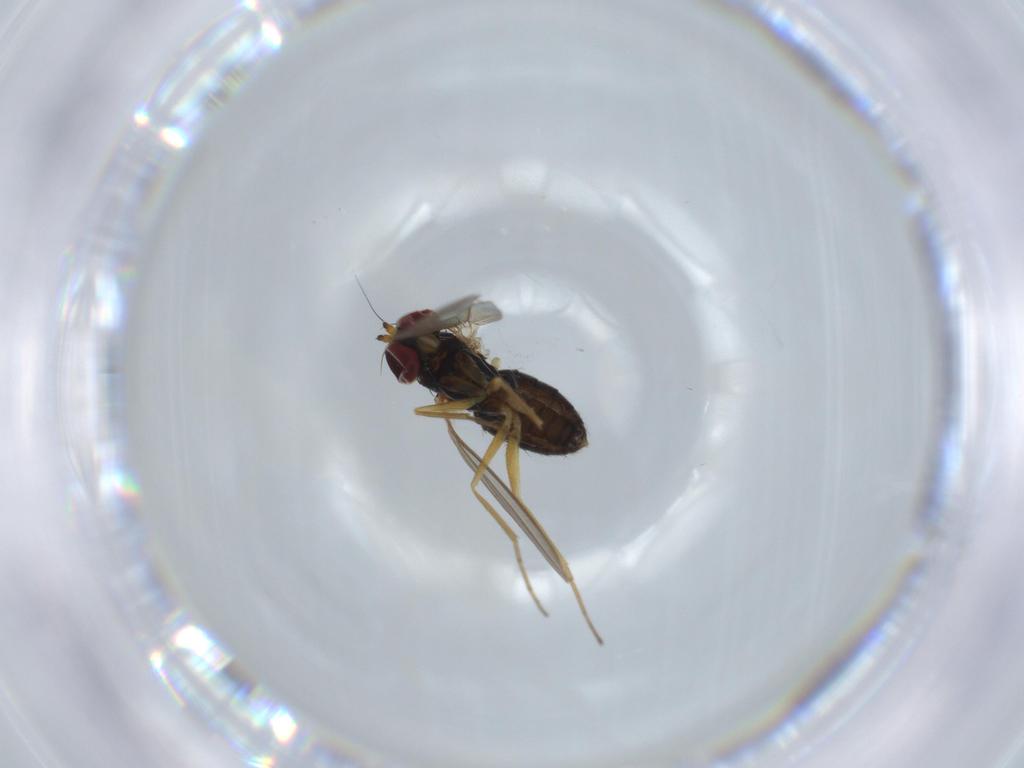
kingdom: Animalia
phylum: Arthropoda
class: Insecta
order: Diptera
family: Dolichopodidae
